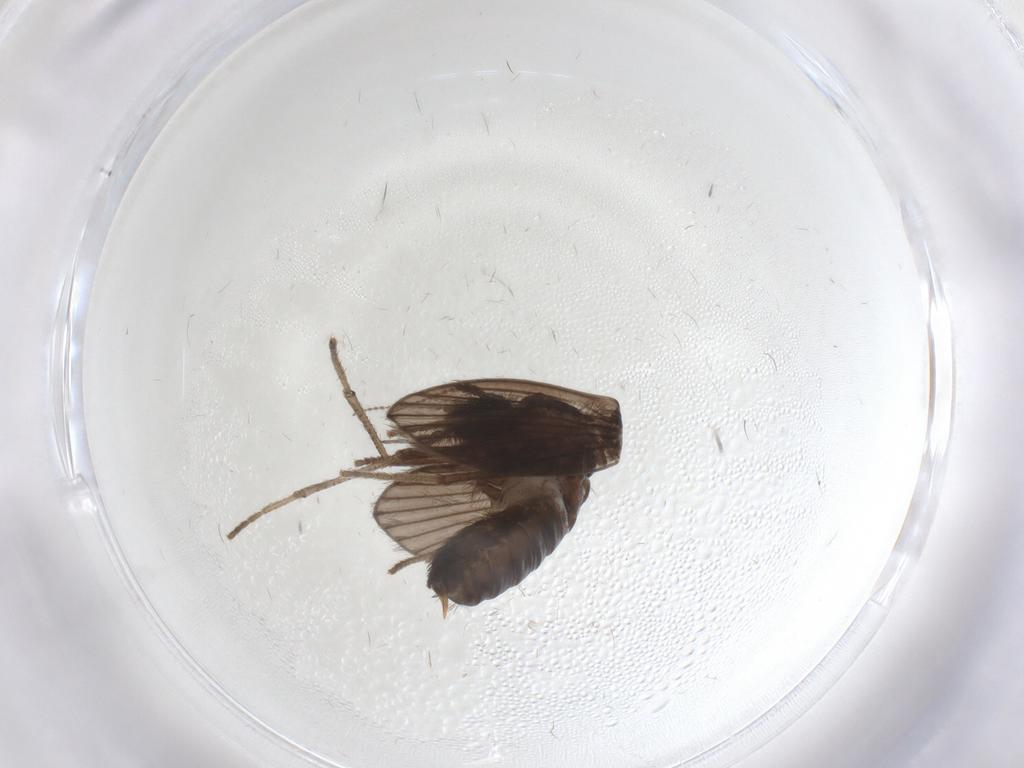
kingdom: Animalia
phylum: Arthropoda
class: Insecta
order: Diptera
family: Psychodidae
